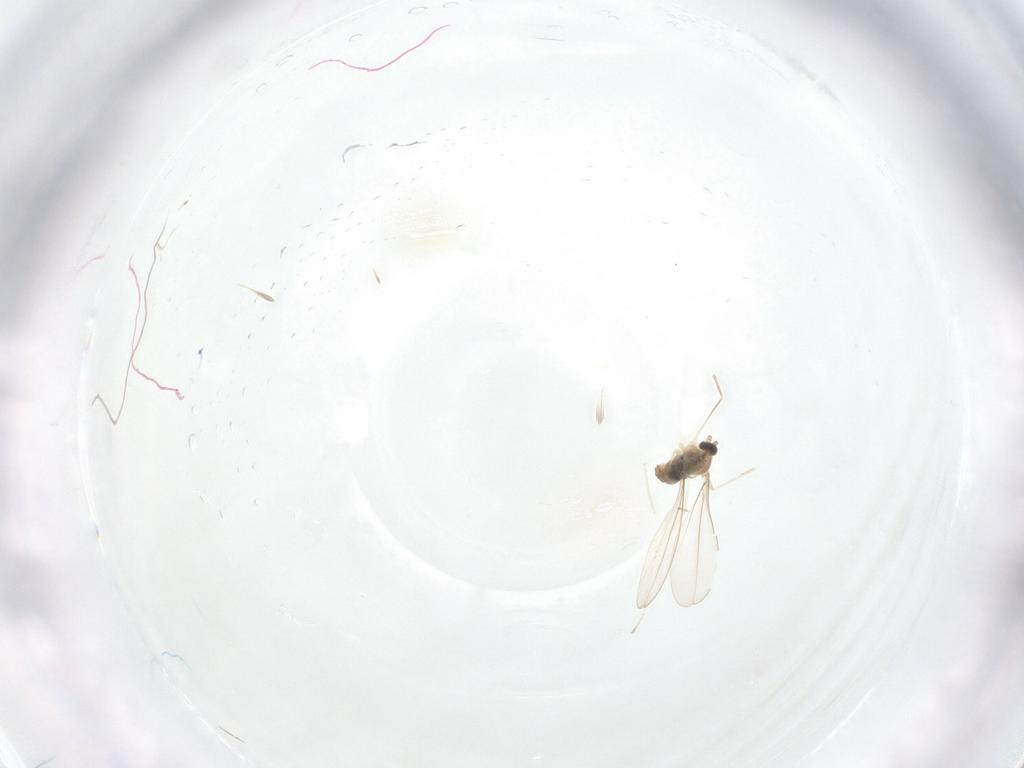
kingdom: Animalia
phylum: Arthropoda
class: Insecta
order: Diptera
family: Cecidomyiidae
